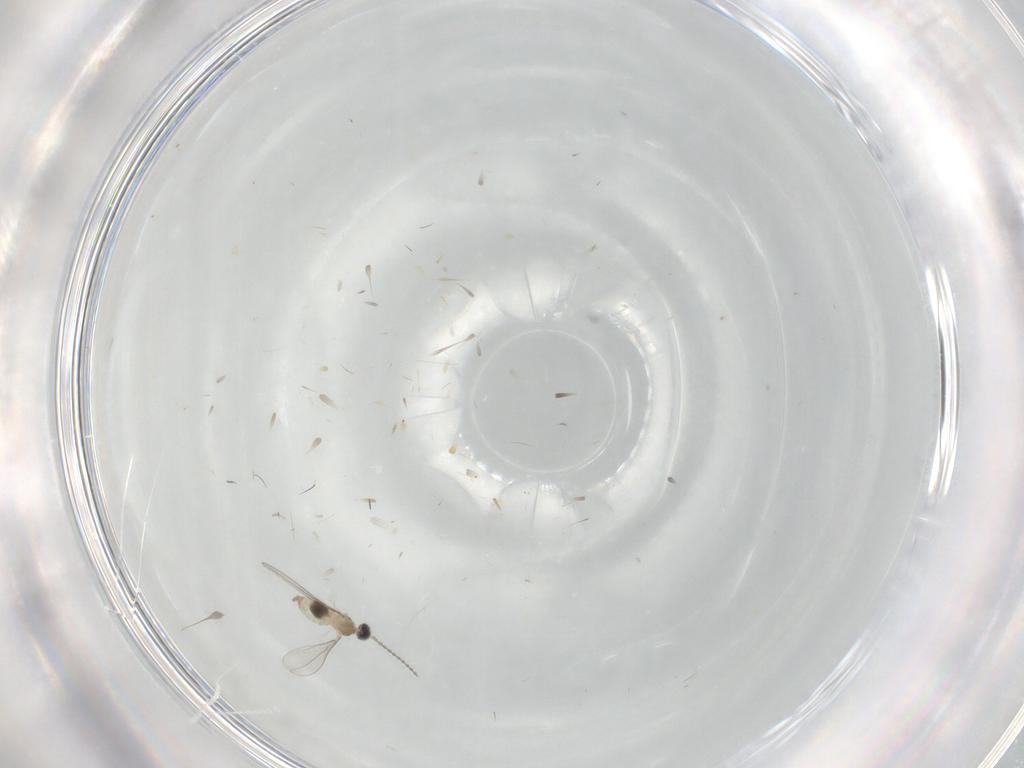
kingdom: Animalia
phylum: Arthropoda
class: Insecta
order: Diptera
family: Cecidomyiidae
